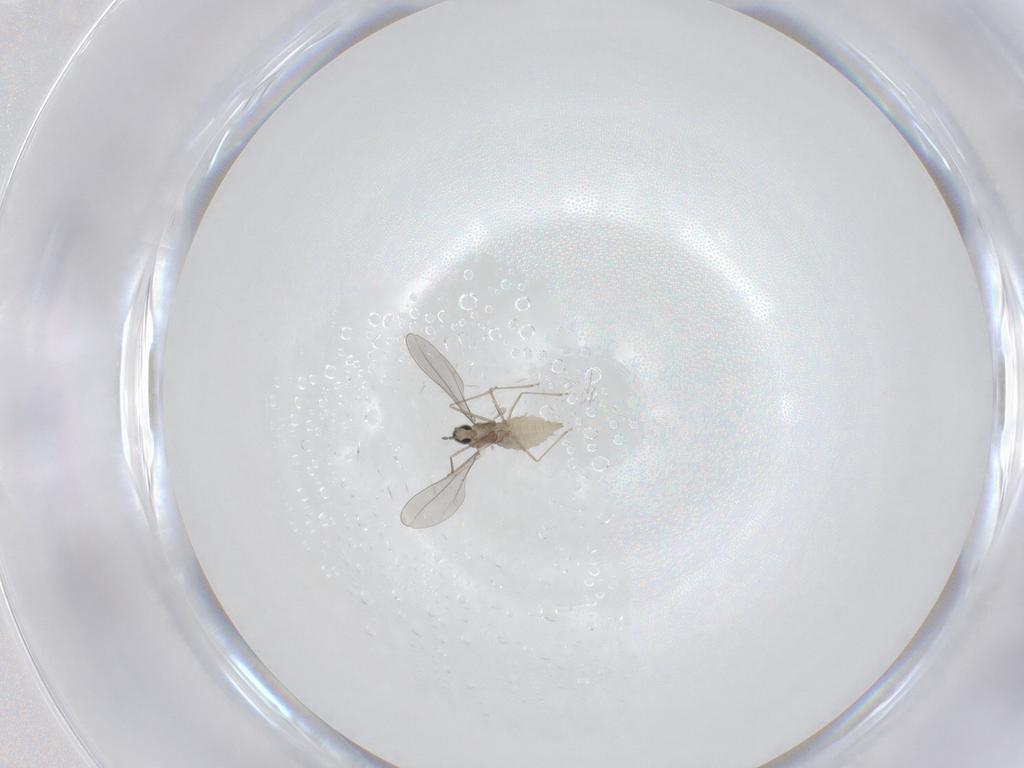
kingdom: Animalia
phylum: Arthropoda
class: Insecta
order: Diptera
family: Cecidomyiidae
